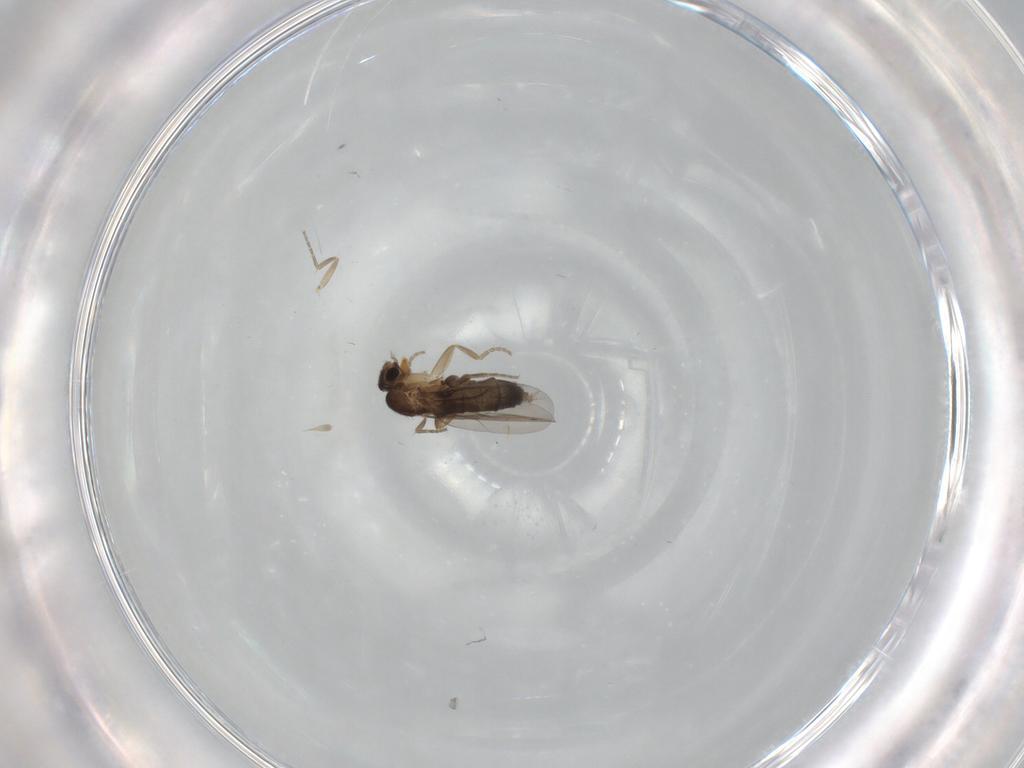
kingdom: Animalia
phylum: Arthropoda
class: Insecta
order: Diptera
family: Phoridae
